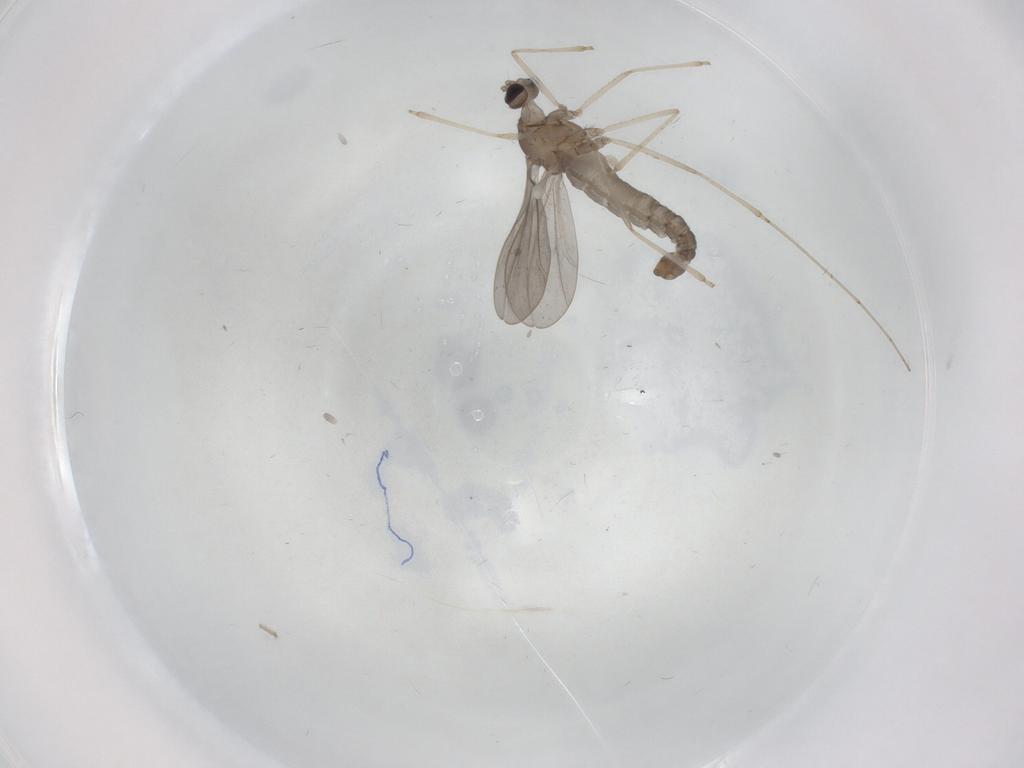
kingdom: Animalia
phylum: Arthropoda
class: Insecta
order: Diptera
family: Cecidomyiidae
